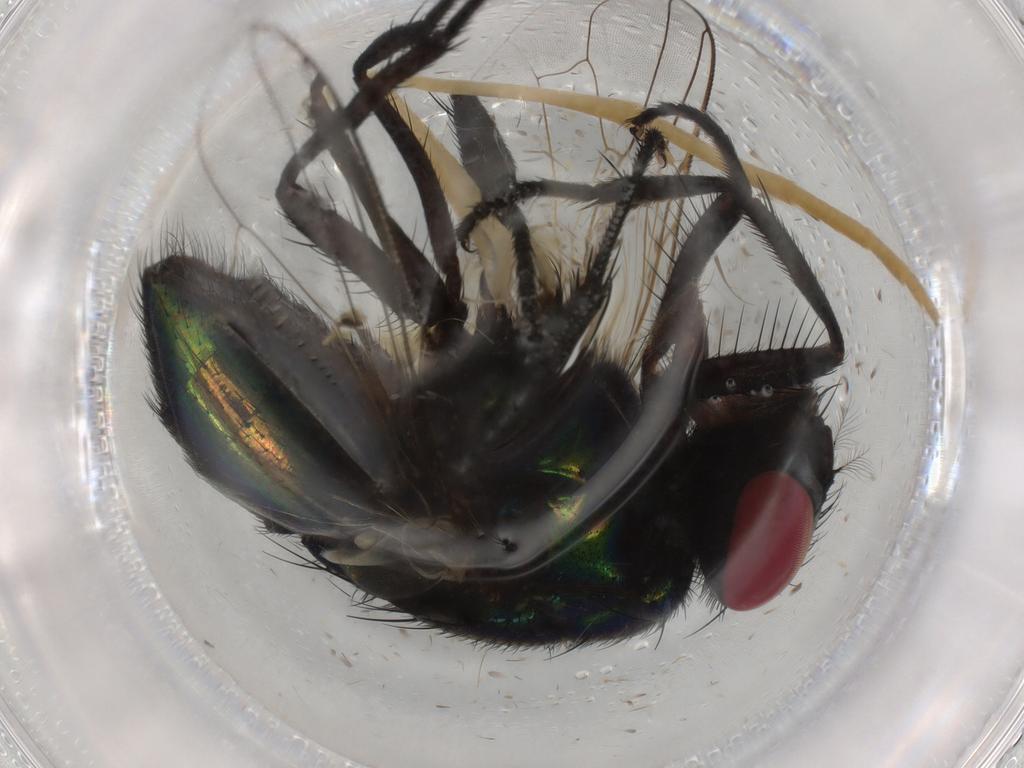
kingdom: Animalia
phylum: Arthropoda
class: Insecta
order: Diptera
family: Muscidae
